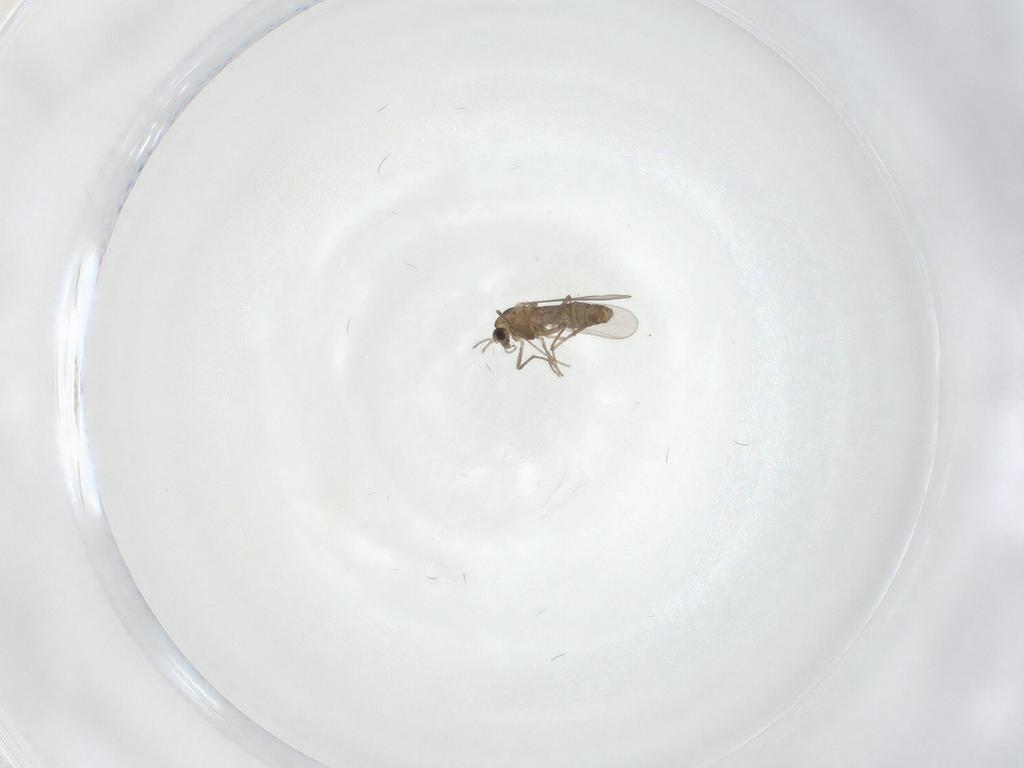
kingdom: Animalia
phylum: Arthropoda
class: Insecta
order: Diptera
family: Chironomidae
